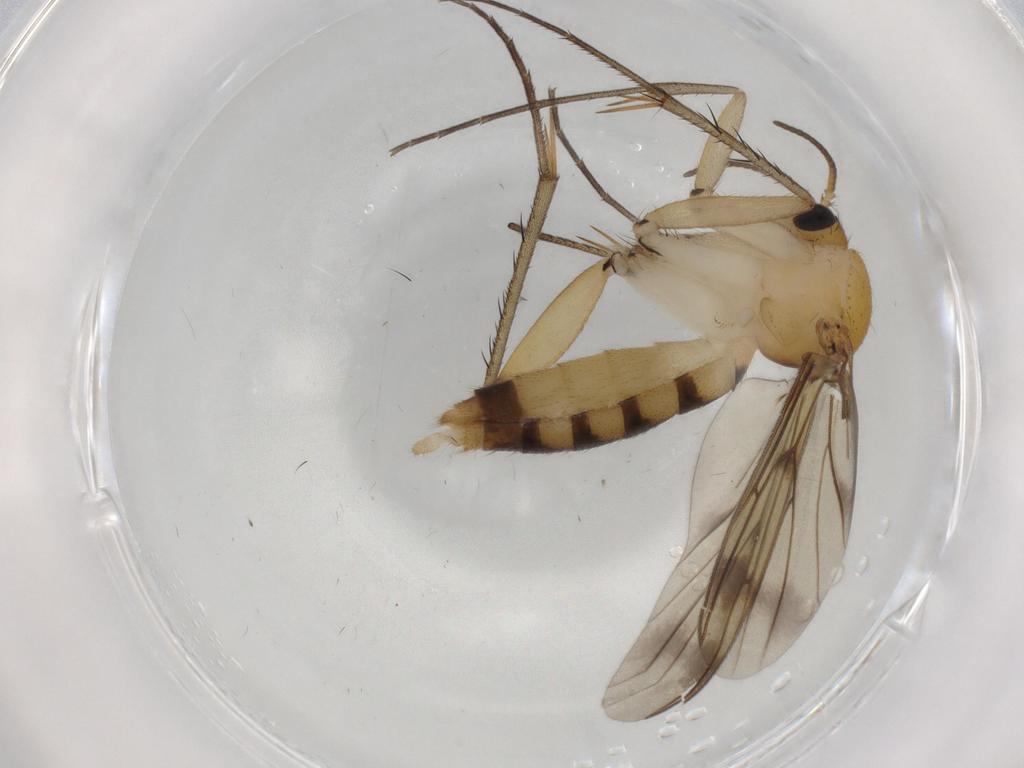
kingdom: Animalia
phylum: Arthropoda
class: Insecta
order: Diptera
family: Mycetophilidae
